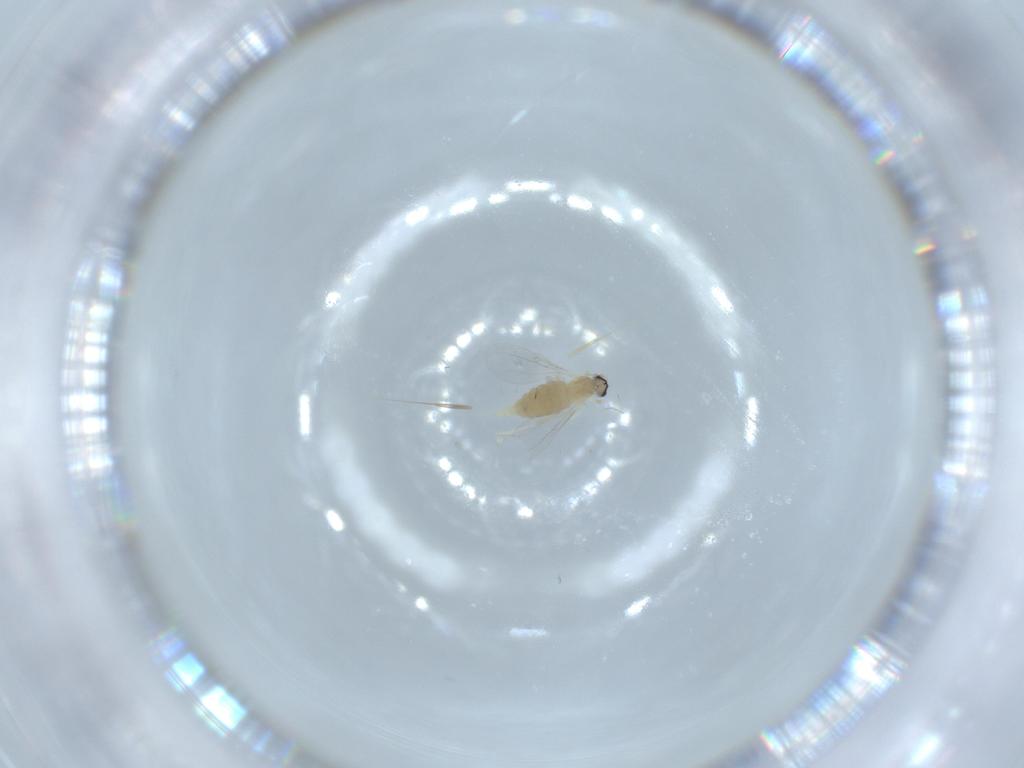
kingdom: Animalia
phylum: Arthropoda
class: Insecta
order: Diptera
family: Cecidomyiidae
